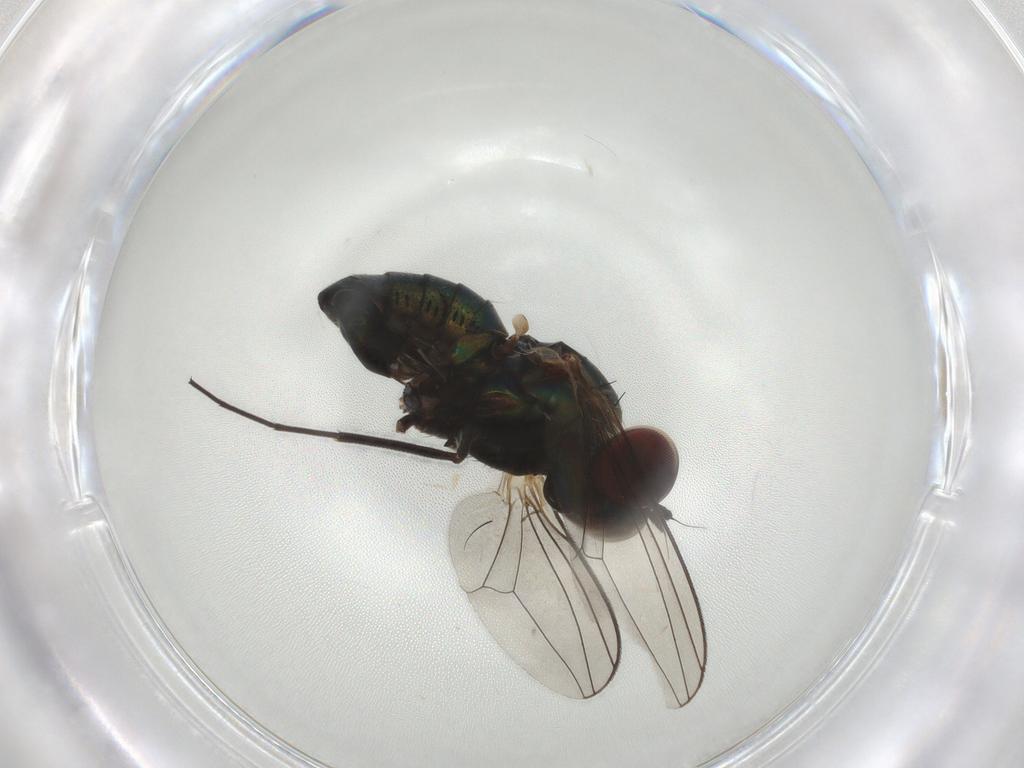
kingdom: Animalia
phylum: Arthropoda
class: Insecta
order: Diptera
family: Dolichopodidae
